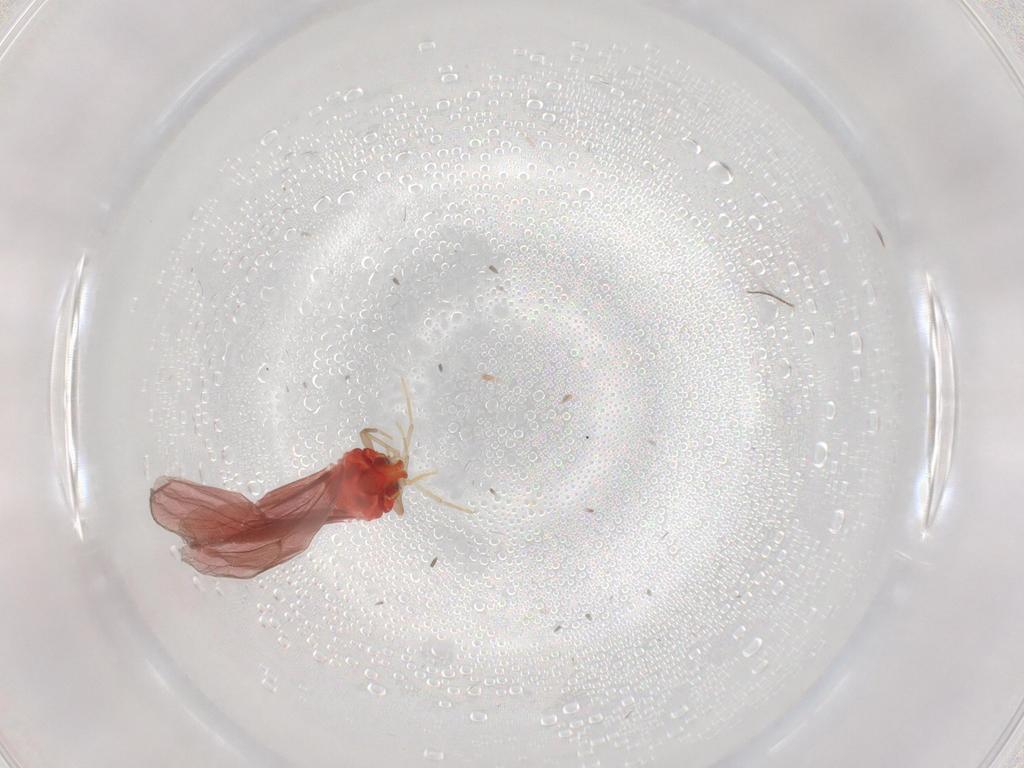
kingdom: Animalia
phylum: Arthropoda
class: Insecta
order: Hemiptera
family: Aleyrodidae
